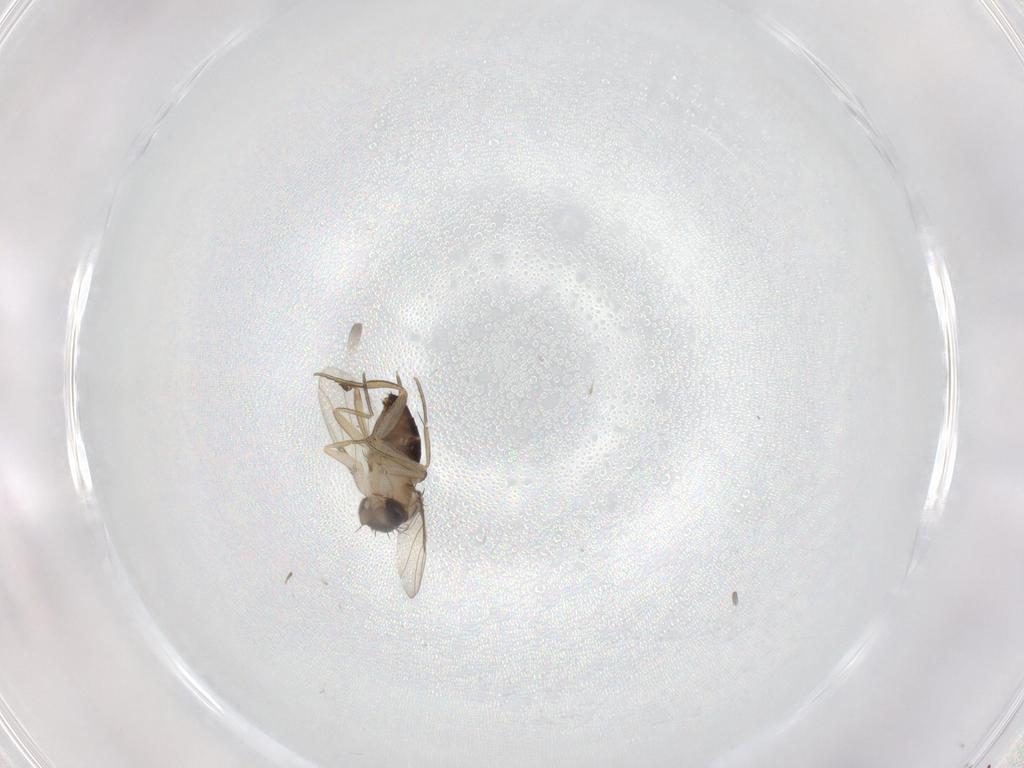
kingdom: Animalia
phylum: Arthropoda
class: Insecta
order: Diptera
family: Cecidomyiidae
